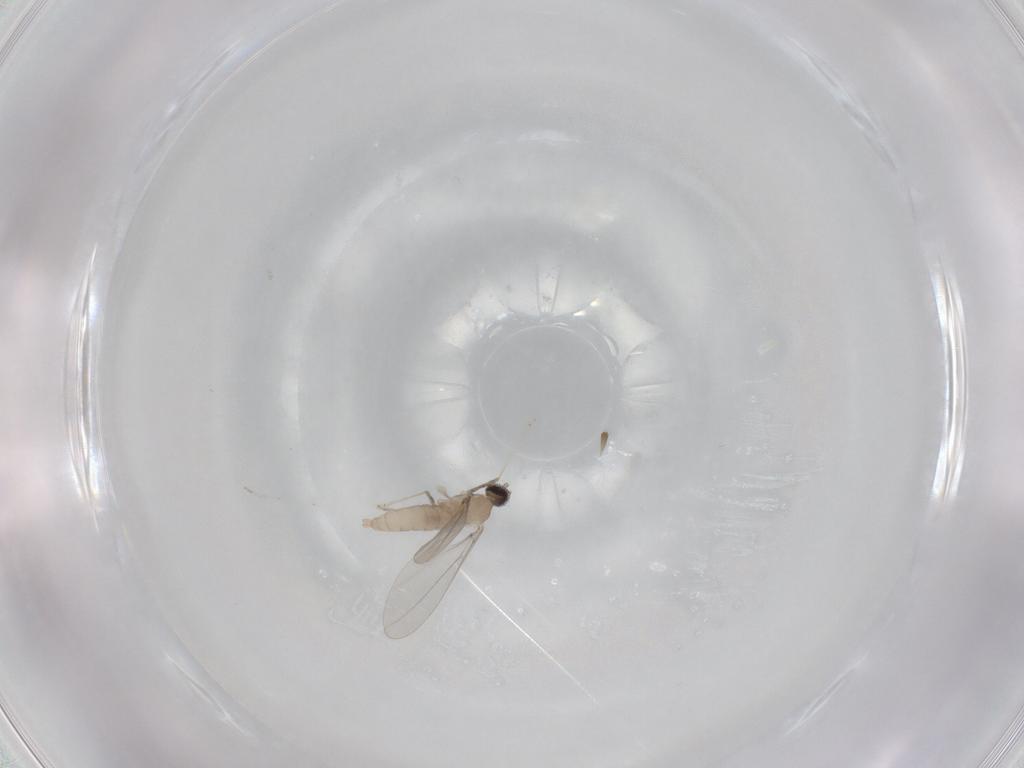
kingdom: Animalia
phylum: Arthropoda
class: Insecta
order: Diptera
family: Cecidomyiidae
